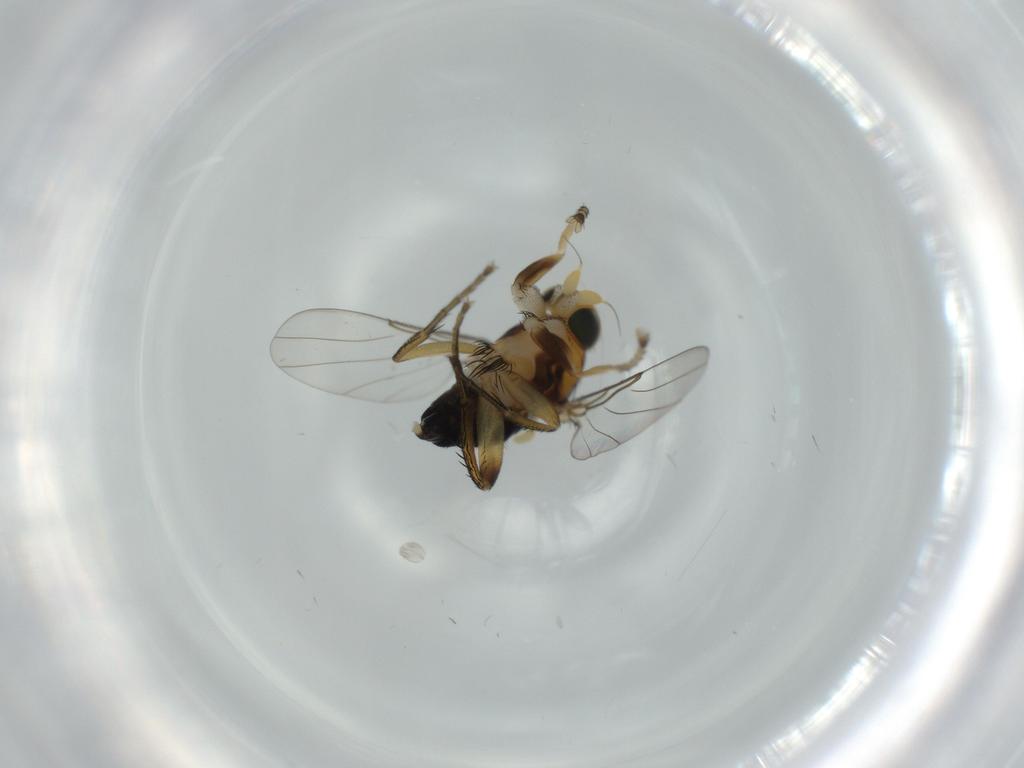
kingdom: Animalia
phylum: Arthropoda
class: Insecta
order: Diptera
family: Phoridae
